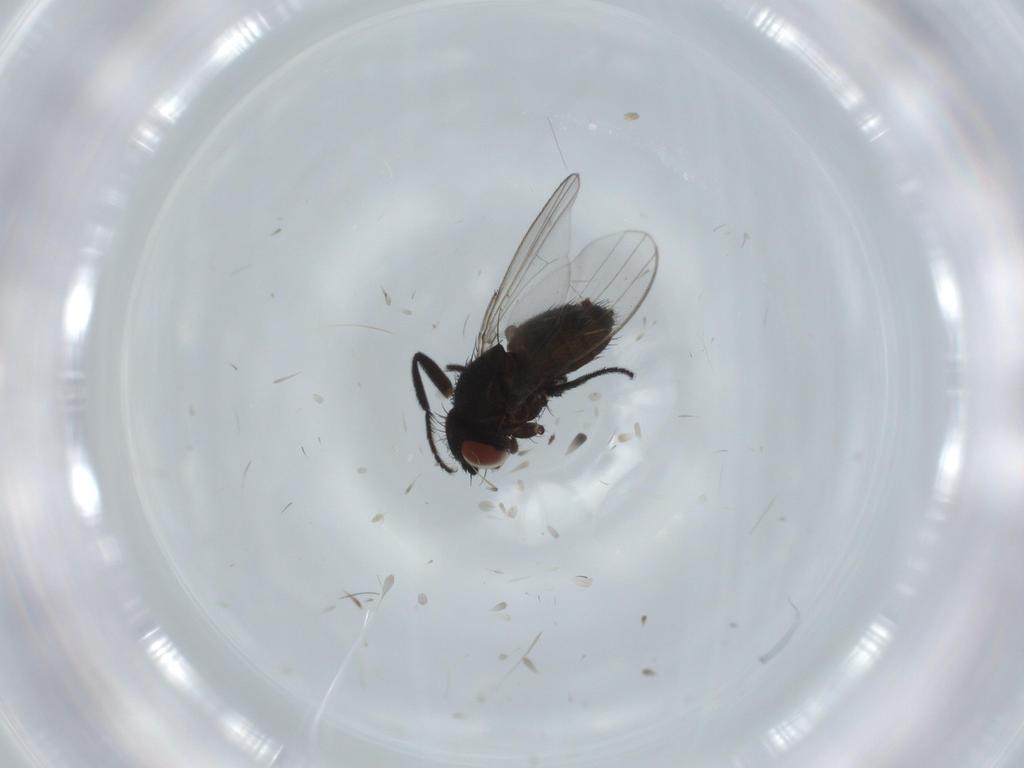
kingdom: Animalia
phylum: Arthropoda
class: Insecta
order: Diptera
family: Milichiidae
